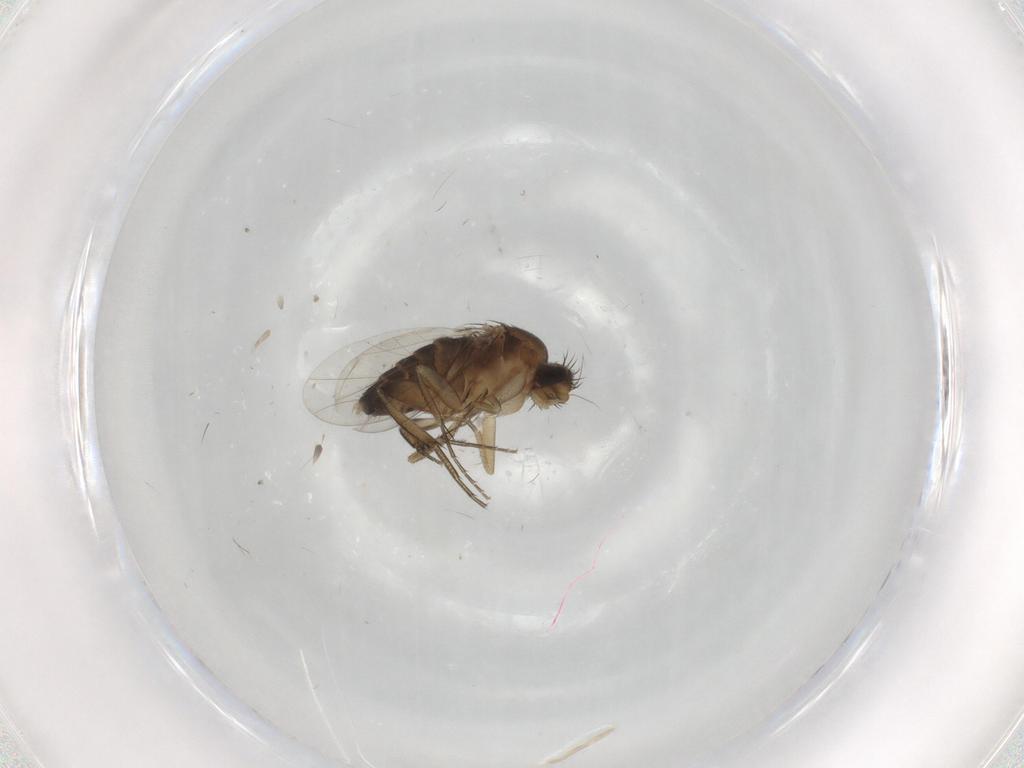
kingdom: Animalia
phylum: Arthropoda
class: Insecta
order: Diptera
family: Phoridae
